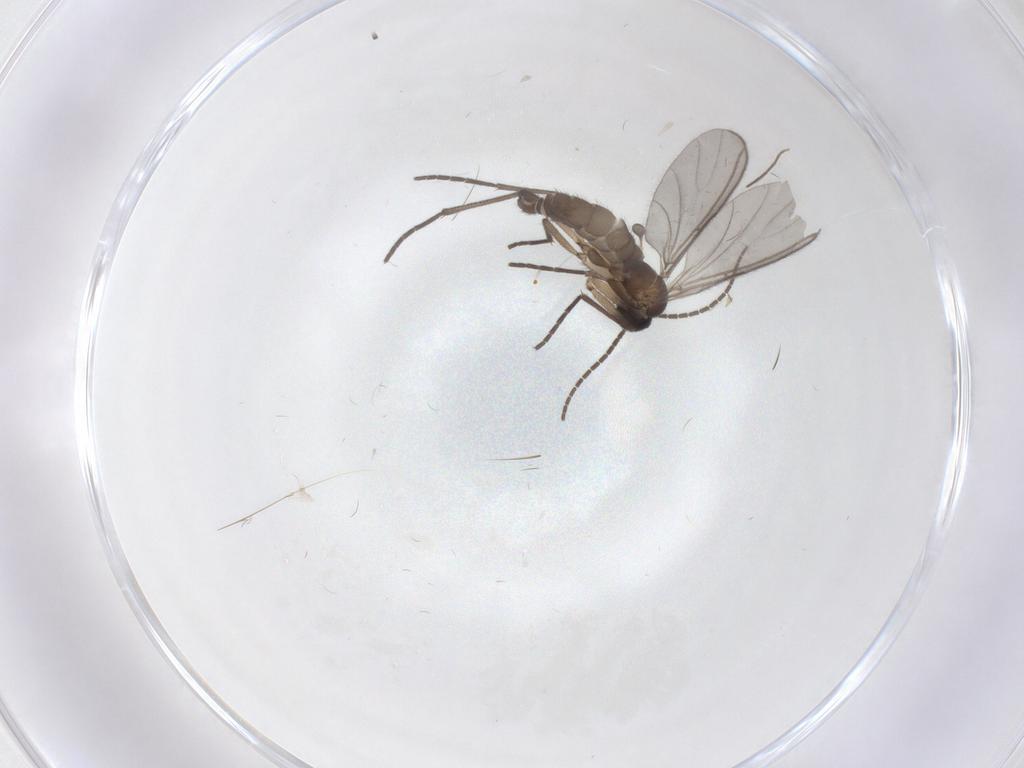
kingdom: Animalia
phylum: Arthropoda
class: Insecta
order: Diptera
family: Sciaridae
